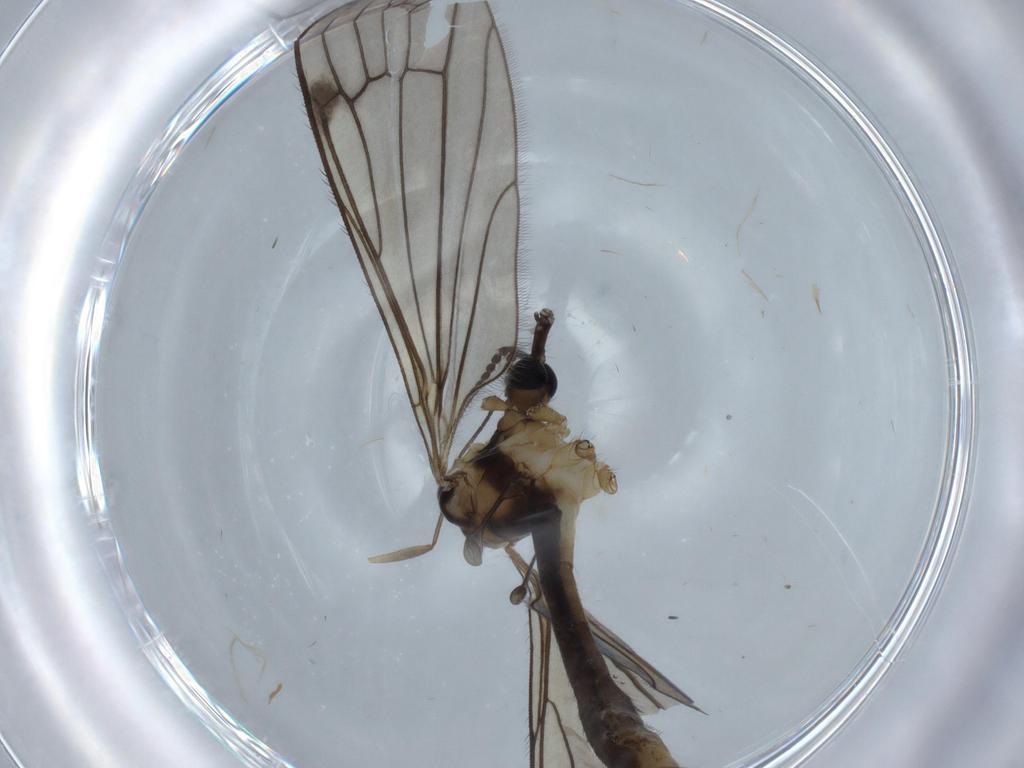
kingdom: Animalia
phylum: Arthropoda
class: Insecta
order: Diptera
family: Sciaridae
